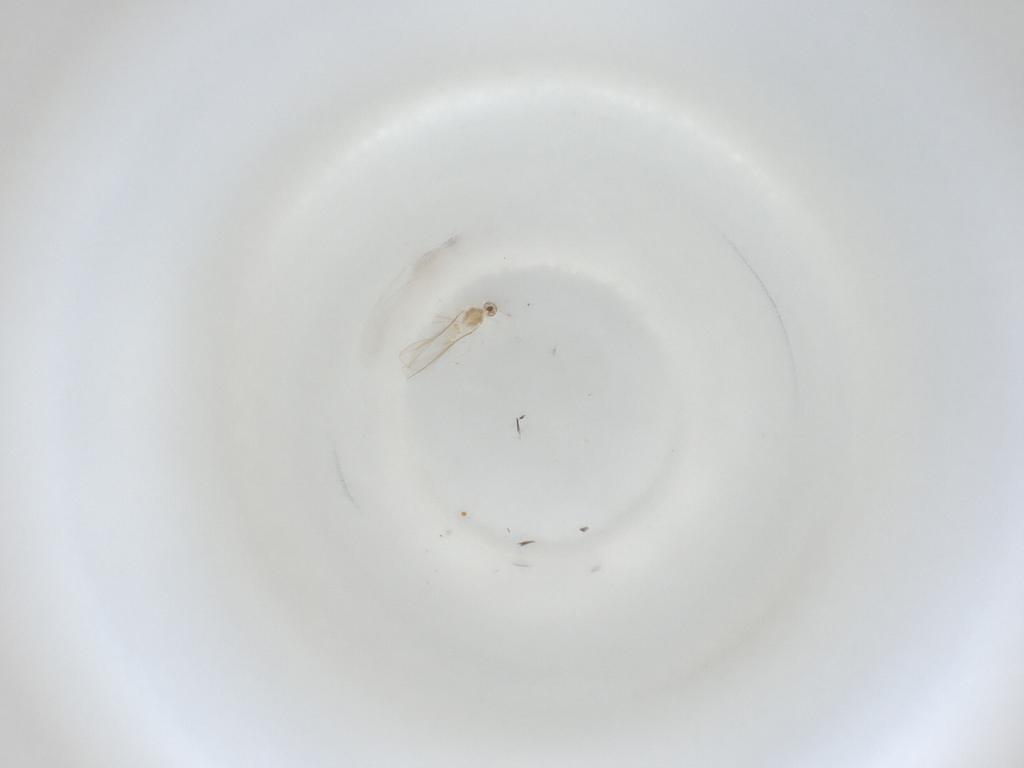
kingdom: Animalia
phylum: Arthropoda
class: Insecta
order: Diptera
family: Cecidomyiidae
